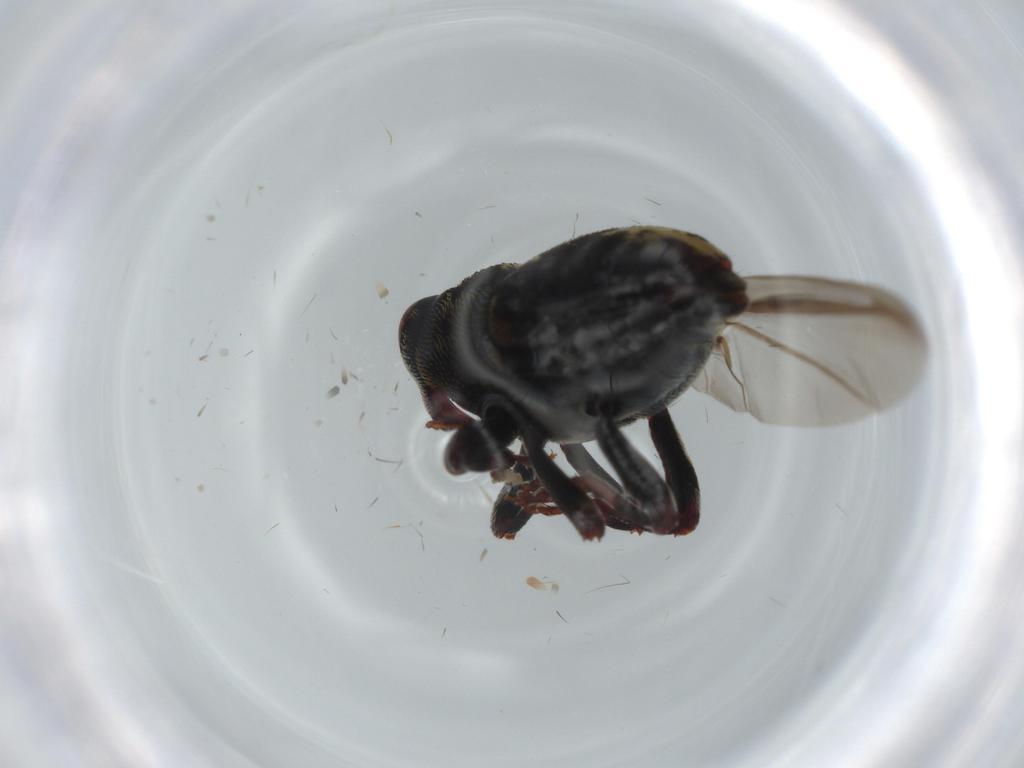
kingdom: Animalia
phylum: Arthropoda
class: Insecta
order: Coleoptera
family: Curculionidae
